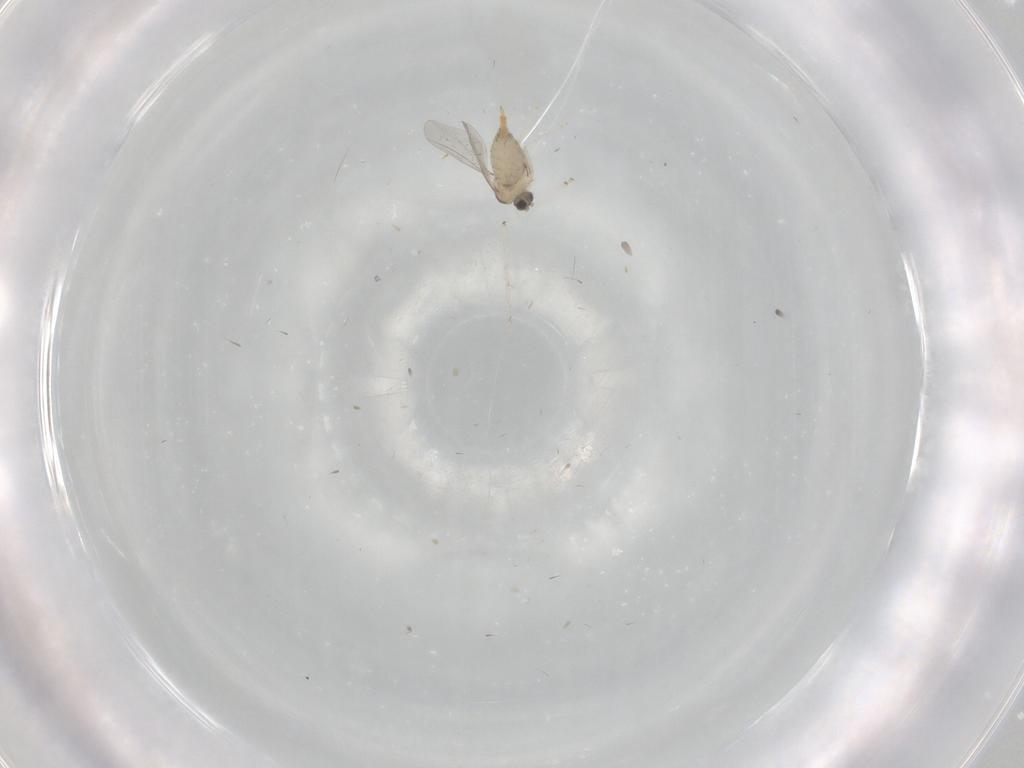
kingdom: Animalia
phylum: Arthropoda
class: Insecta
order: Diptera
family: Cecidomyiidae
